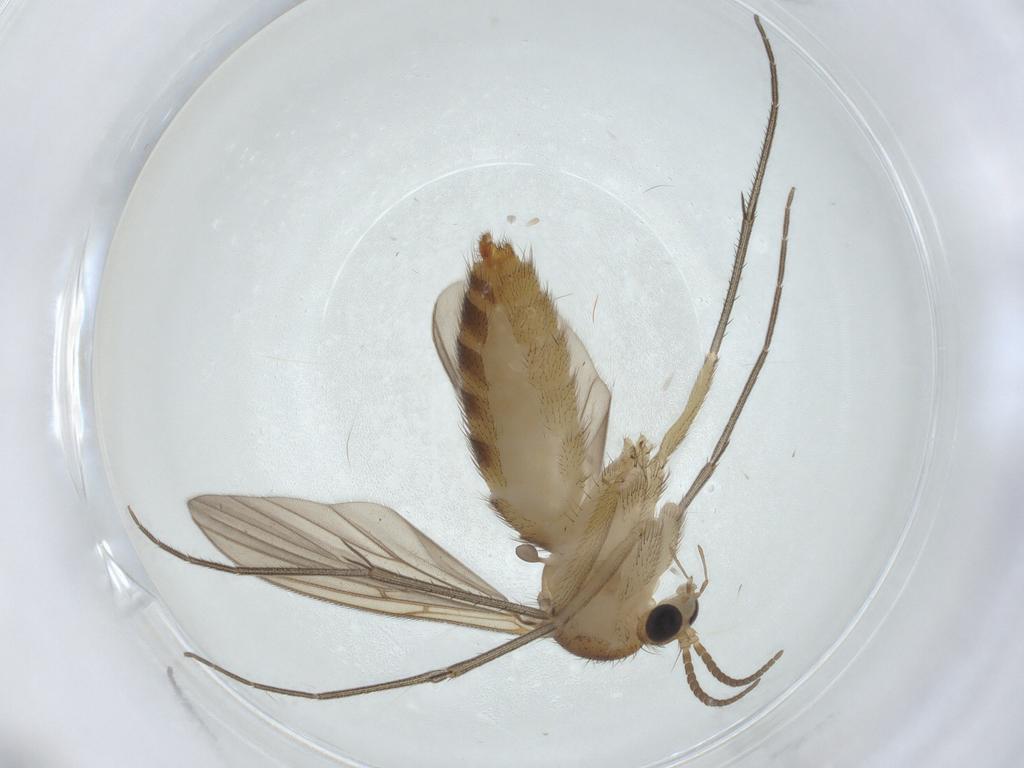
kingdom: Animalia
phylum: Arthropoda
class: Insecta
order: Diptera
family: Mycetophilidae
